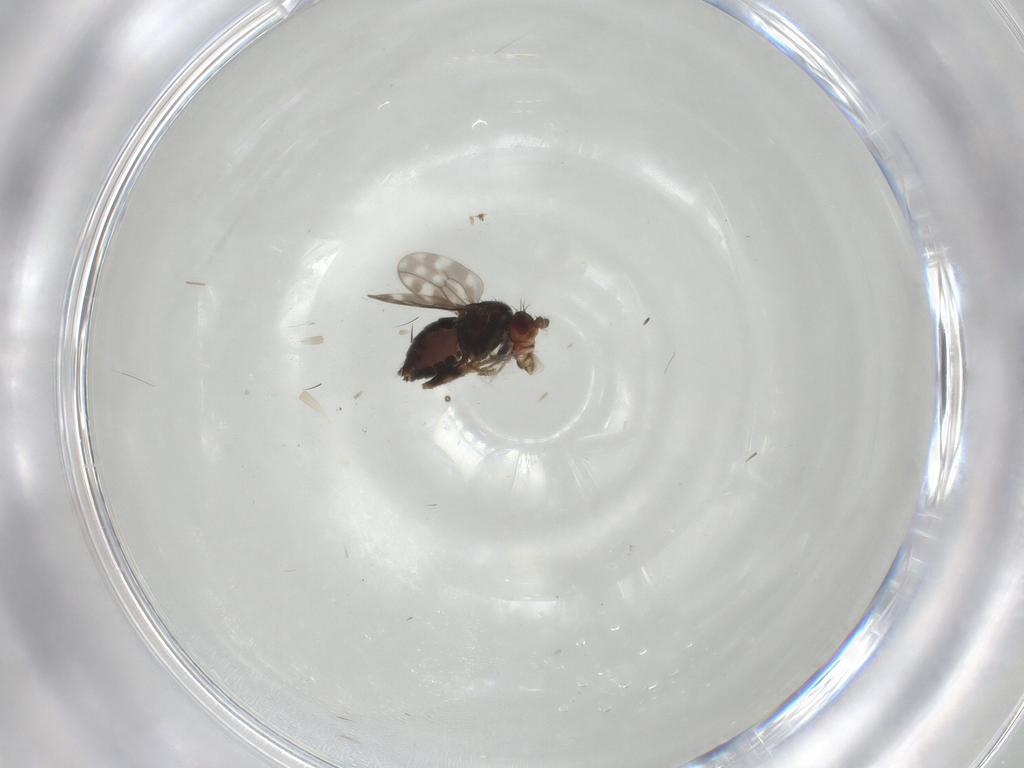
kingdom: Animalia
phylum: Arthropoda
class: Insecta
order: Diptera
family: Sphaeroceridae
